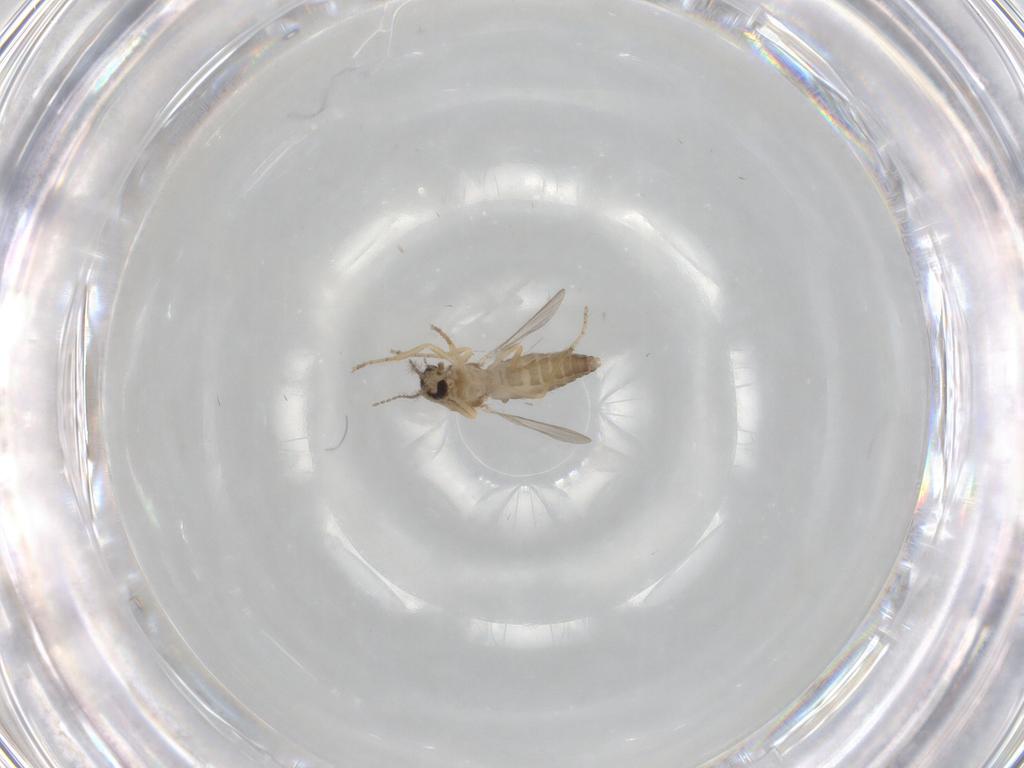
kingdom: Animalia
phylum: Arthropoda
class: Insecta
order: Diptera
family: Ceratopogonidae
